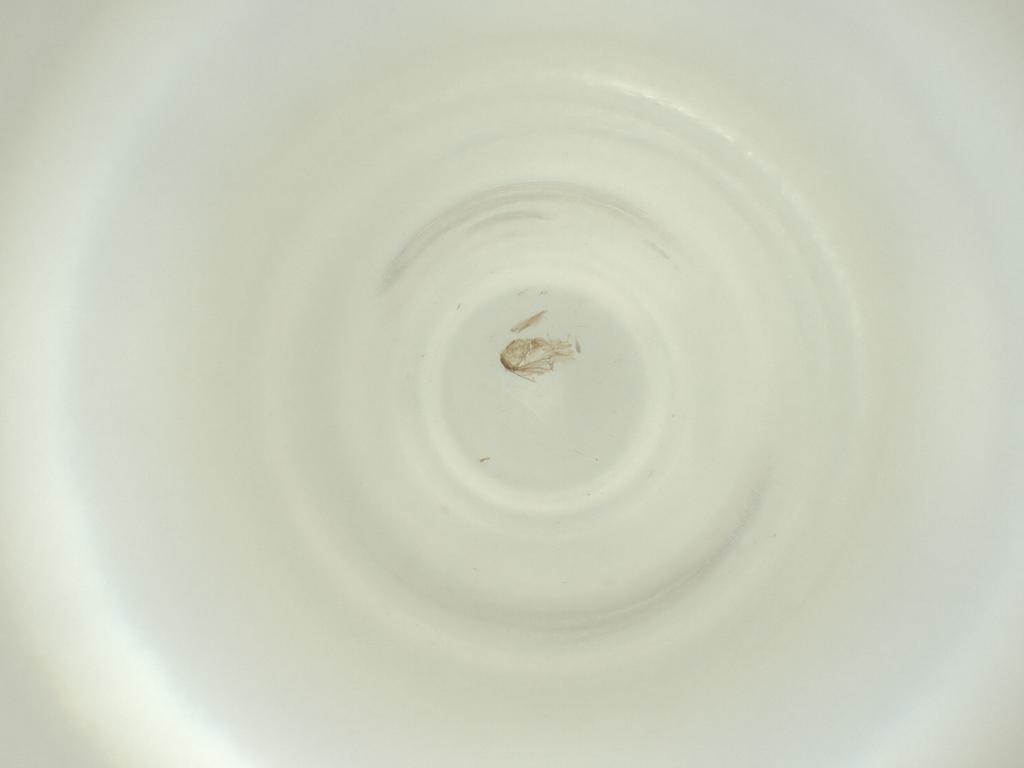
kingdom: Animalia
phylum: Arthropoda
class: Insecta
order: Diptera
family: Cecidomyiidae
